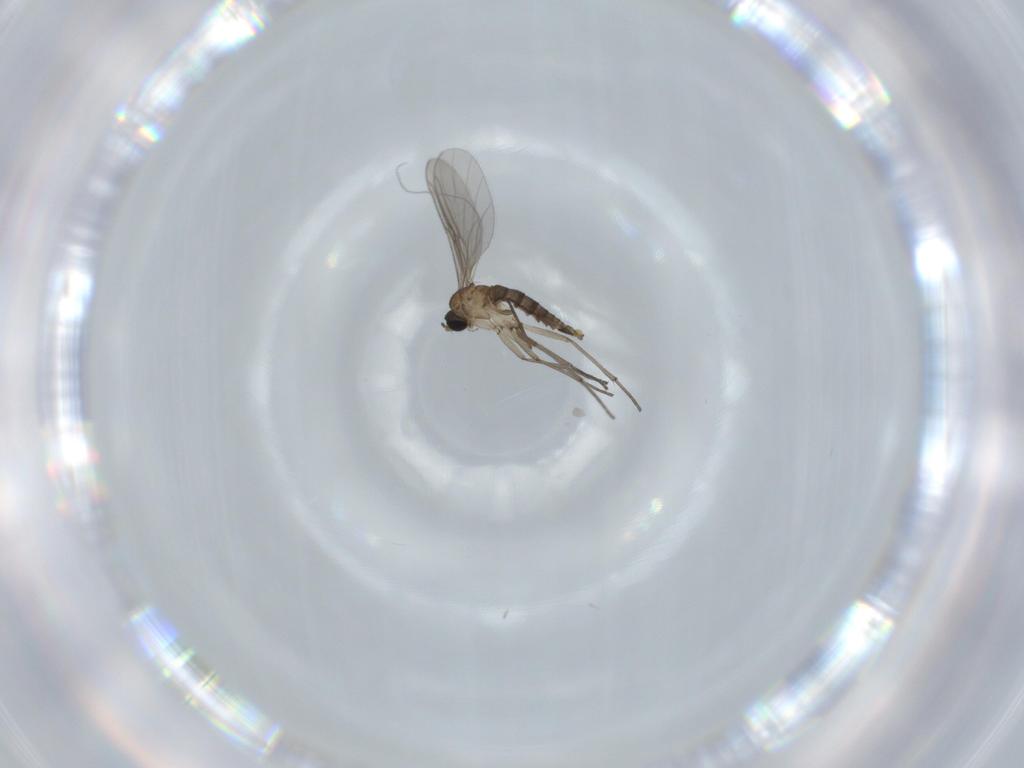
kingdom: Animalia
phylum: Arthropoda
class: Insecta
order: Diptera
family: Sciaridae
